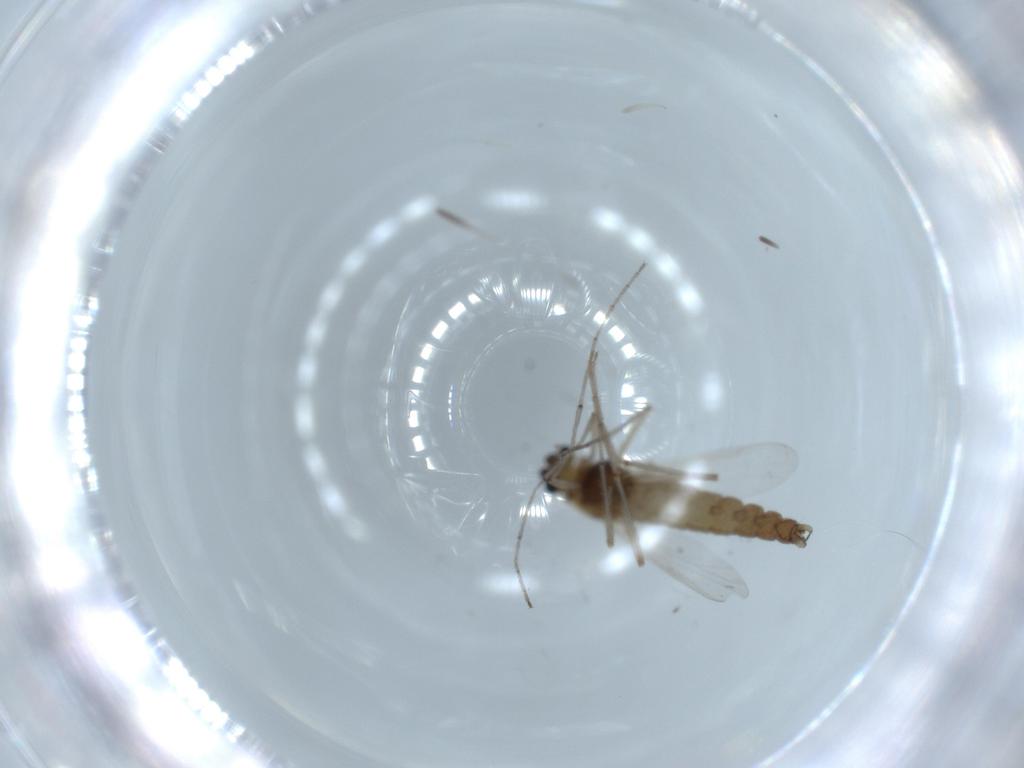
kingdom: Animalia
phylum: Arthropoda
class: Insecta
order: Diptera
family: Chironomidae
